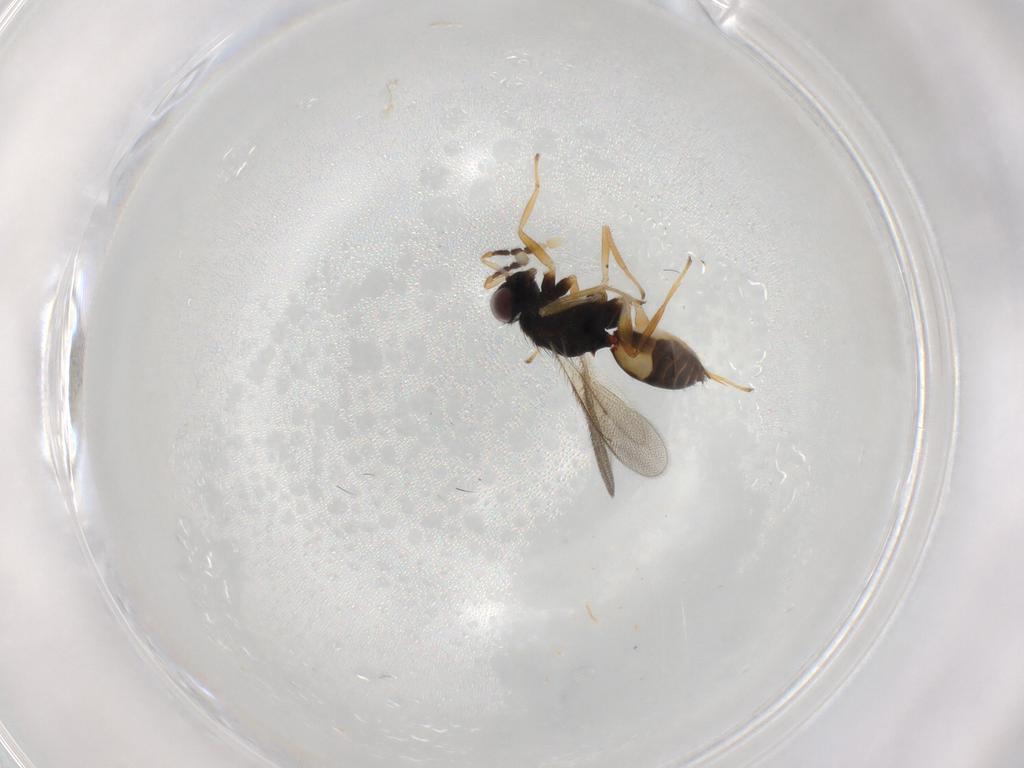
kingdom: Animalia
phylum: Arthropoda
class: Insecta
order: Hymenoptera
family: Eulophidae
